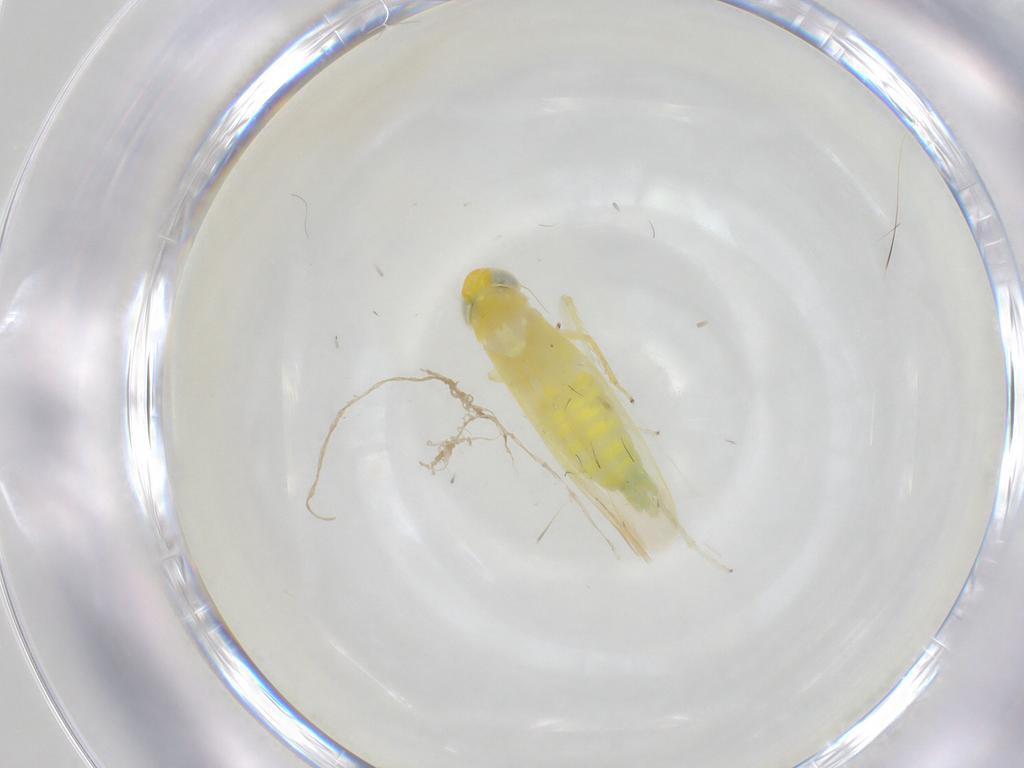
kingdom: Animalia
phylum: Arthropoda
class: Insecta
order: Hemiptera
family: Cicadellidae
